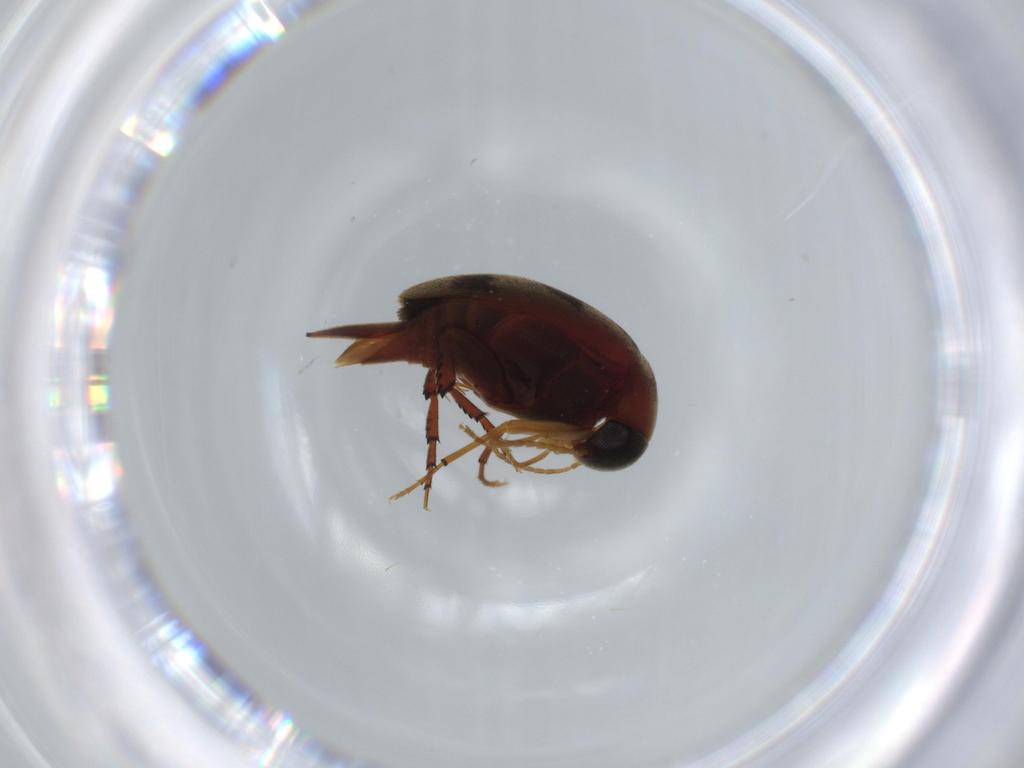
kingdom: Animalia
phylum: Arthropoda
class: Insecta
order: Coleoptera
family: Mordellidae
